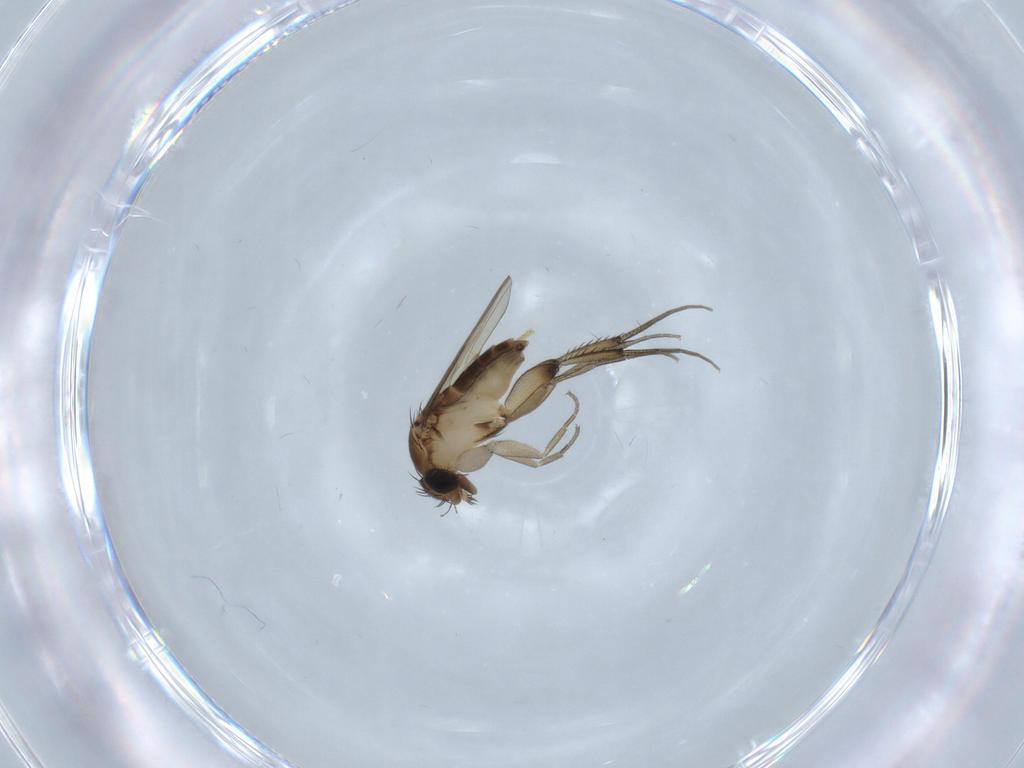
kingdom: Animalia
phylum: Arthropoda
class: Insecta
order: Diptera
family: Phoridae
